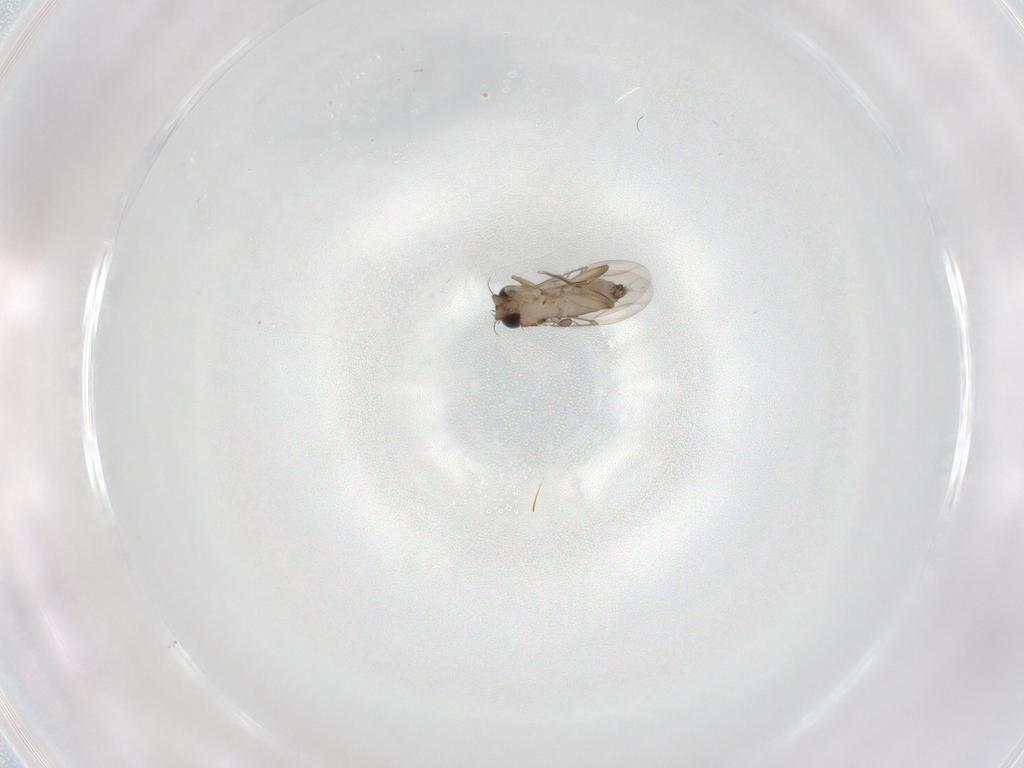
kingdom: Animalia
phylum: Arthropoda
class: Insecta
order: Diptera
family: Phoridae
